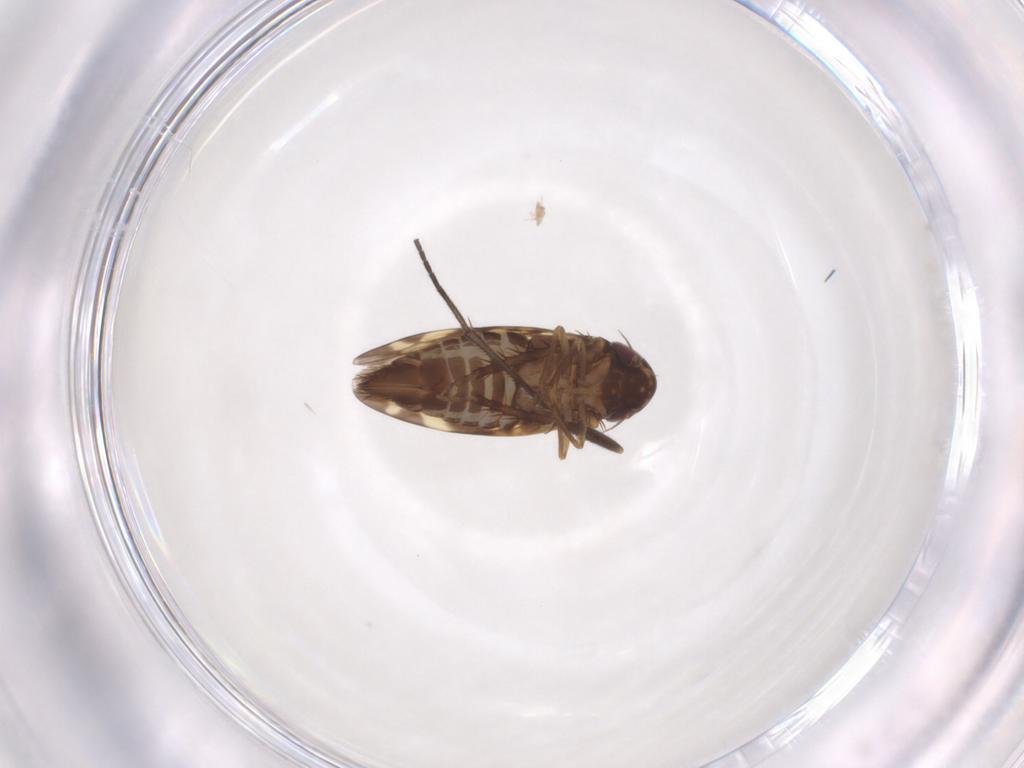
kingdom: Animalia
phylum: Arthropoda
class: Insecta
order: Hemiptera
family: Cicadellidae
